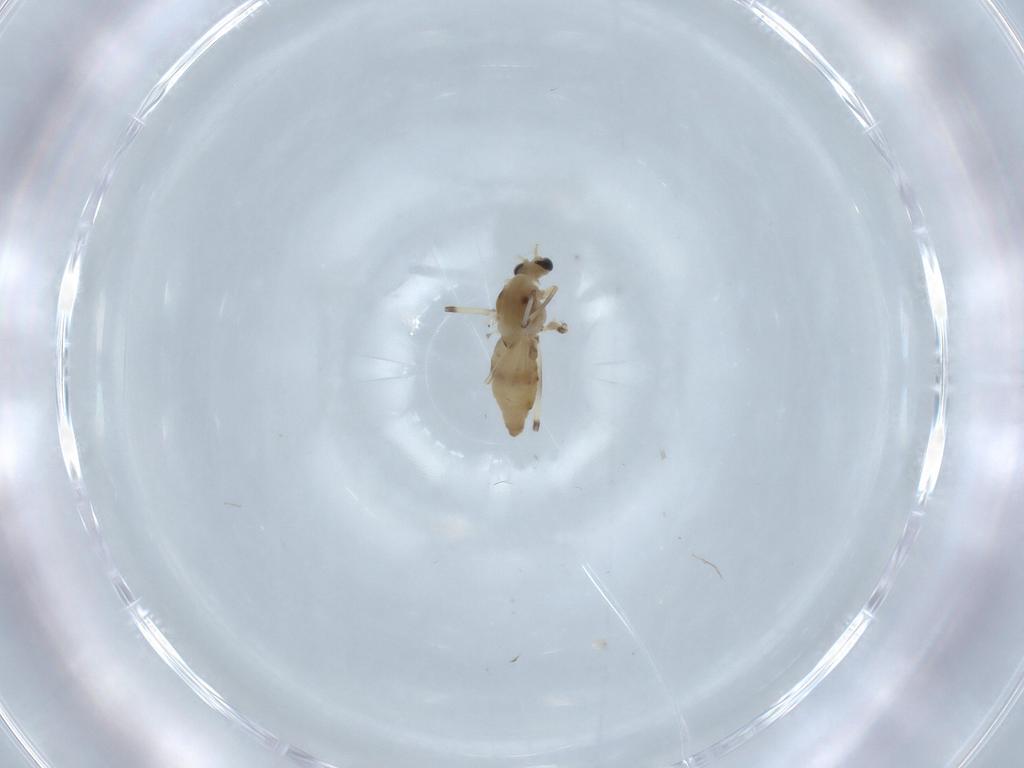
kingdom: Animalia
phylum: Arthropoda
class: Insecta
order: Diptera
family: Chironomidae
